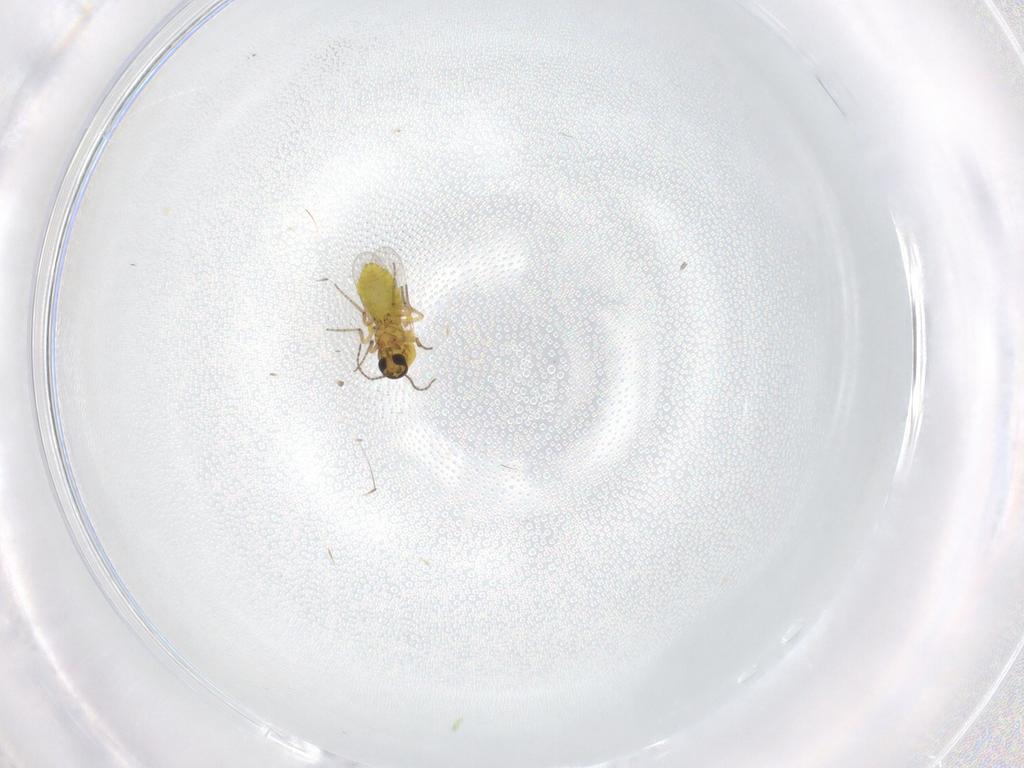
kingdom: Animalia
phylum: Arthropoda
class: Insecta
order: Diptera
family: Ceratopogonidae
